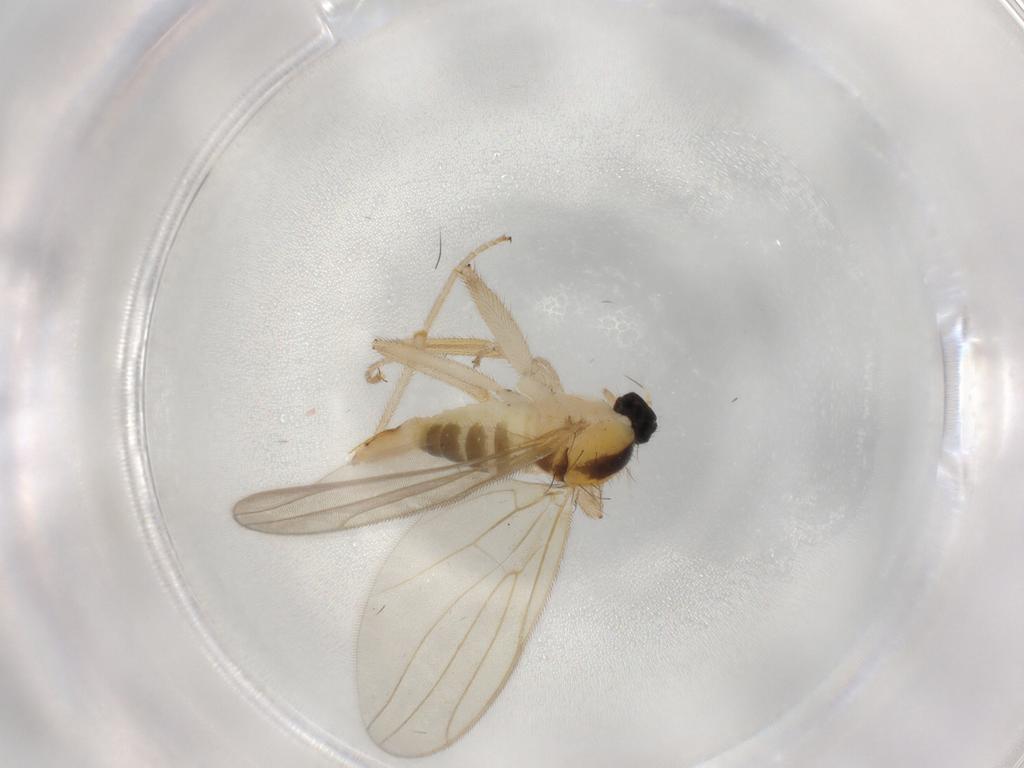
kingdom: Animalia
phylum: Arthropoda
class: Insecta
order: Diptera
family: Hybotidae
